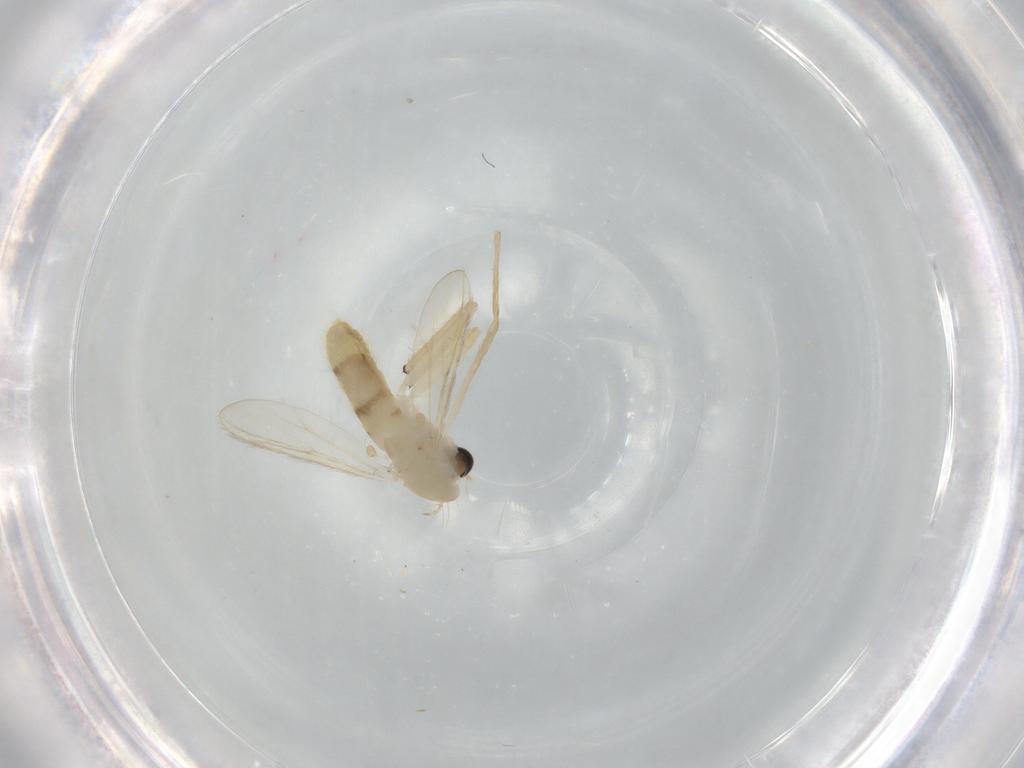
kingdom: Animalia
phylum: Arthropoda
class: Insecta
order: Diptera
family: Chironomidae
